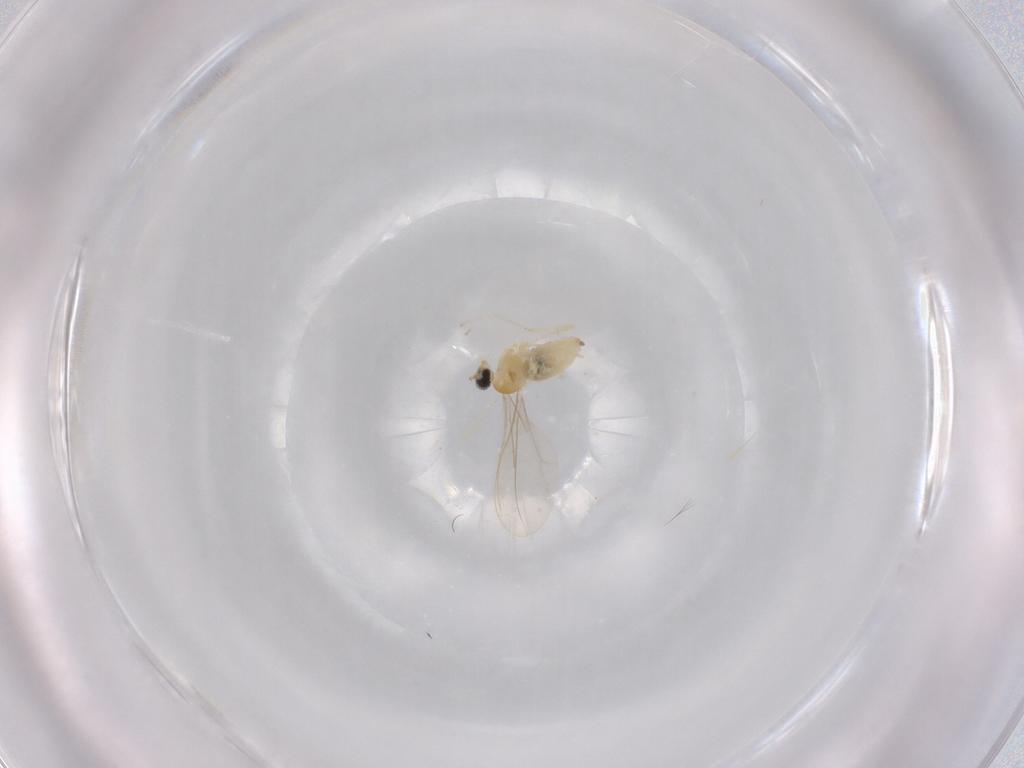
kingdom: Animalia
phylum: Arthropoda
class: Insecta
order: Diptera
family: Cecidomyiidae
